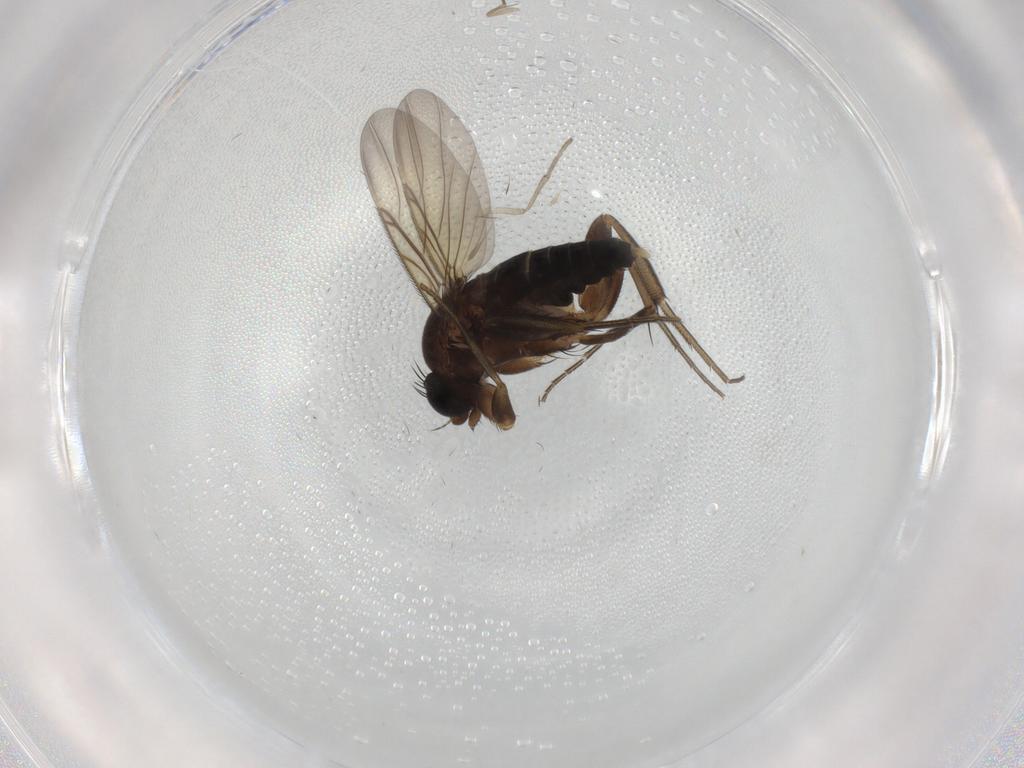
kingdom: Animalia
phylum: Arthropoda
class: Insecta
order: Diptera
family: Phoridae
